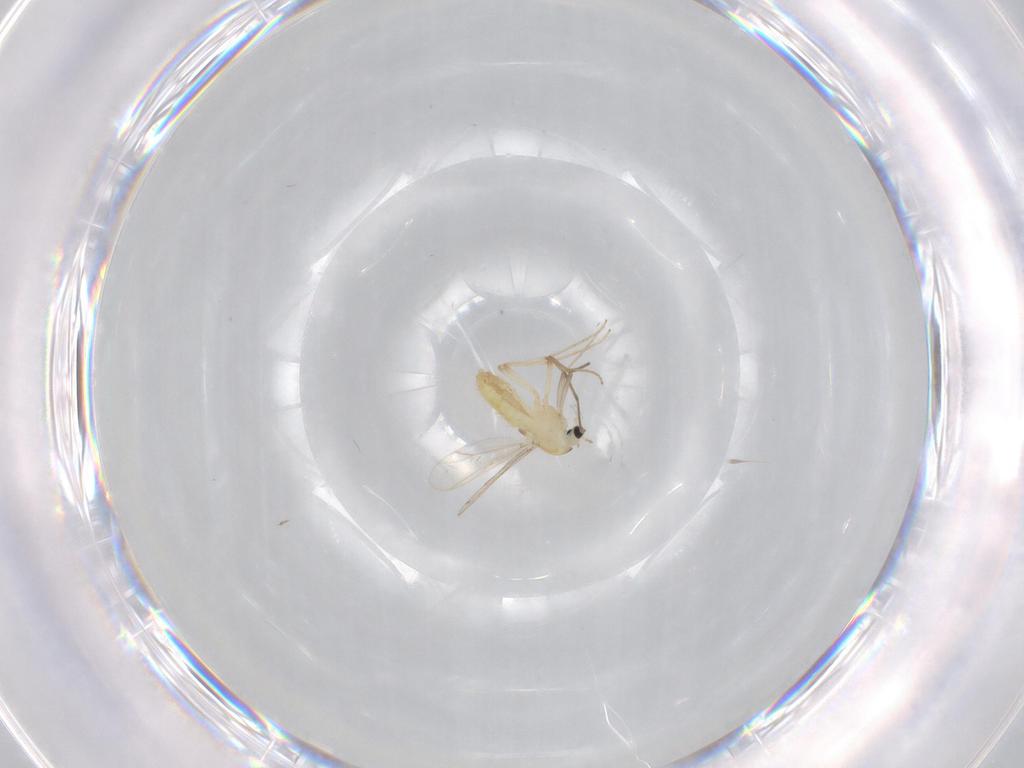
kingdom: Animalia
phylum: Arthropoda
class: Insecta
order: Diptera
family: Chironomidae
